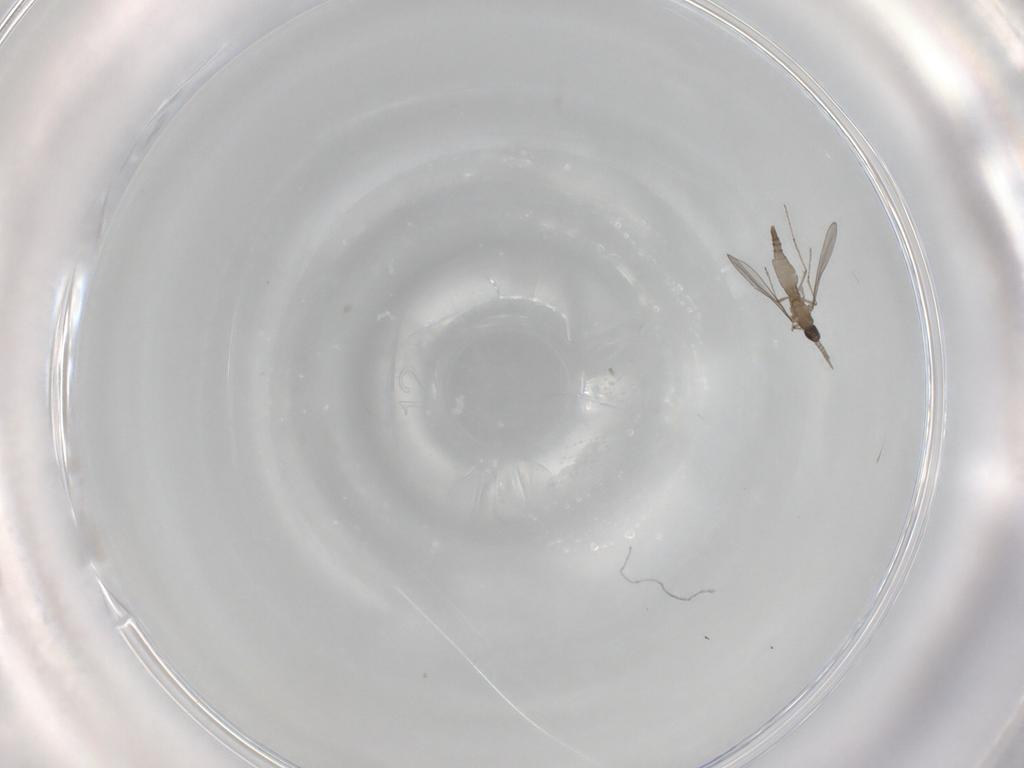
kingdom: Animalia
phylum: Arthropoda
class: Insecta
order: Diptera
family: Cecidomyiidae
